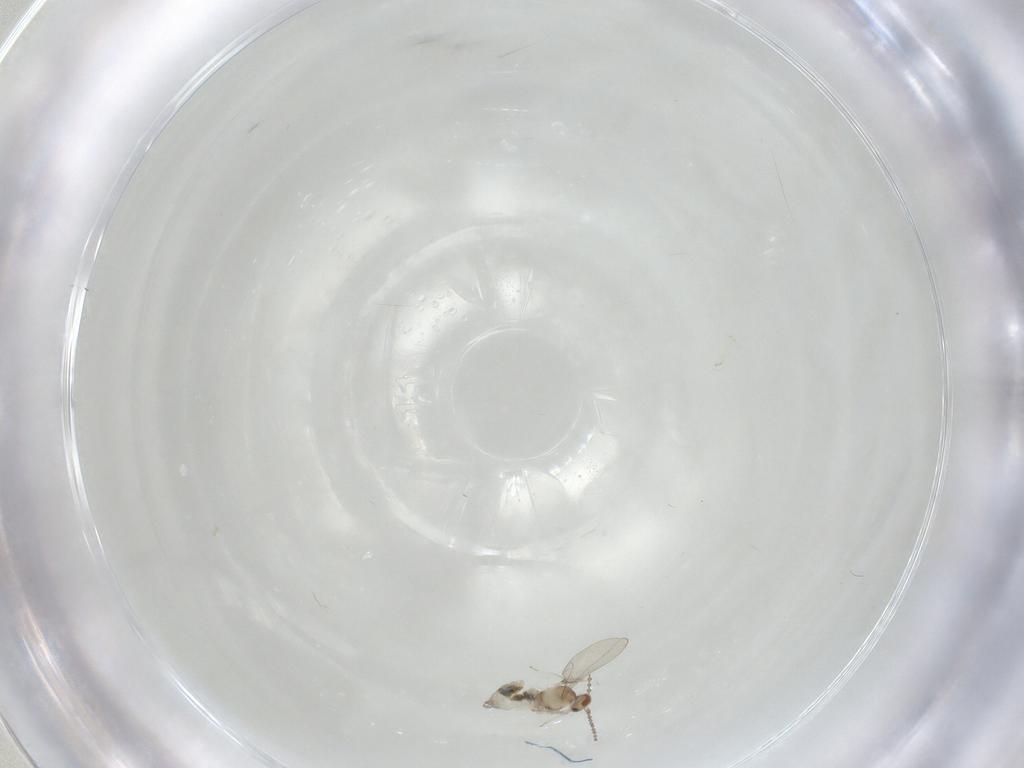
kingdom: Animalia
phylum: Arthropoda
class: Insecta
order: Diptera
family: Cecidomyiidae
